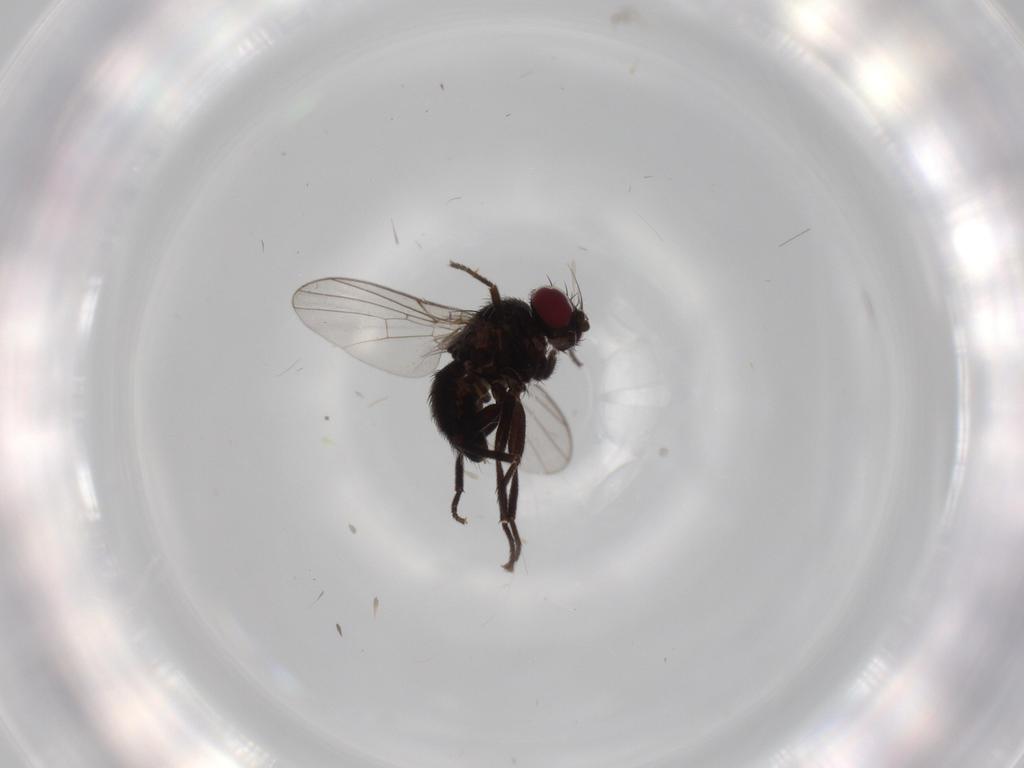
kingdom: Animalia
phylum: Arthropoda
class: Insecta
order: Diptera
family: Agromyzidae
